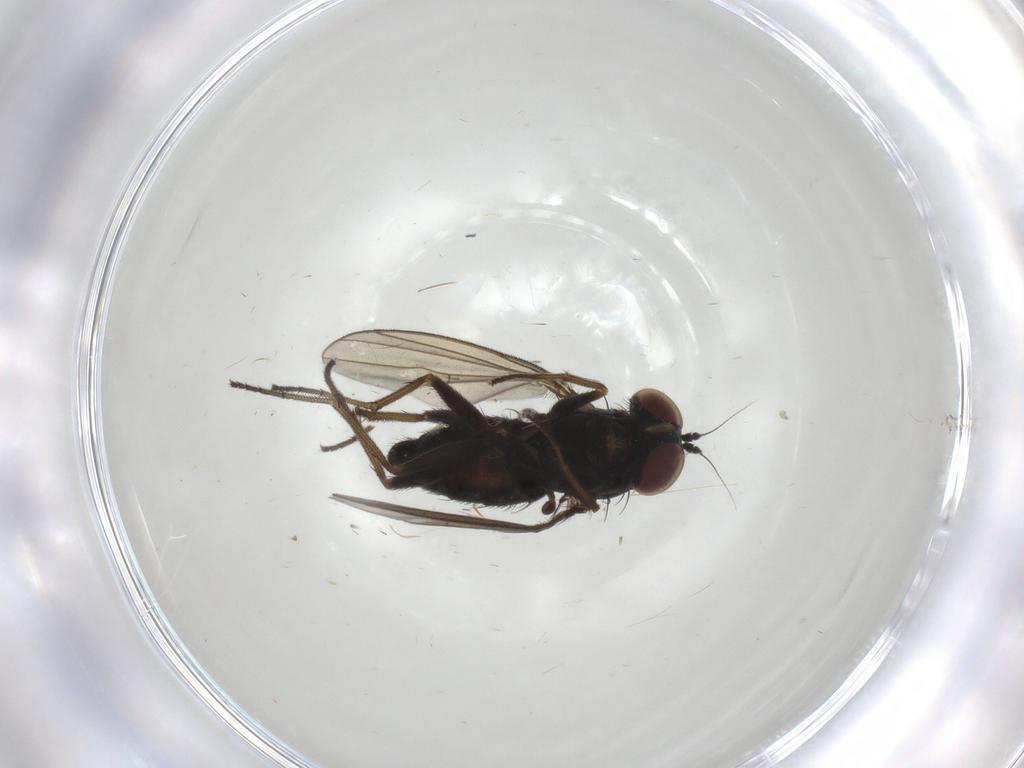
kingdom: Animalia
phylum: Arthropoda
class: Insecta
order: Diptera
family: Dolichopodidae
